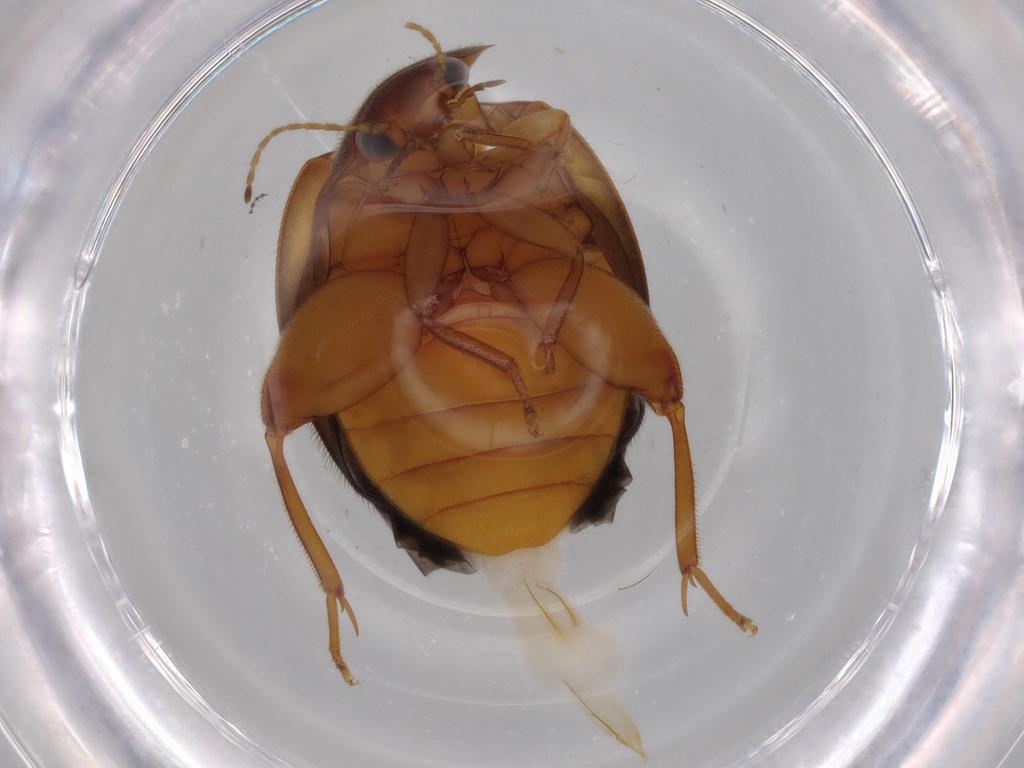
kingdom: Animalia
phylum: Arthropoda
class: Insecta
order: Coleoptera
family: Scirtidae
